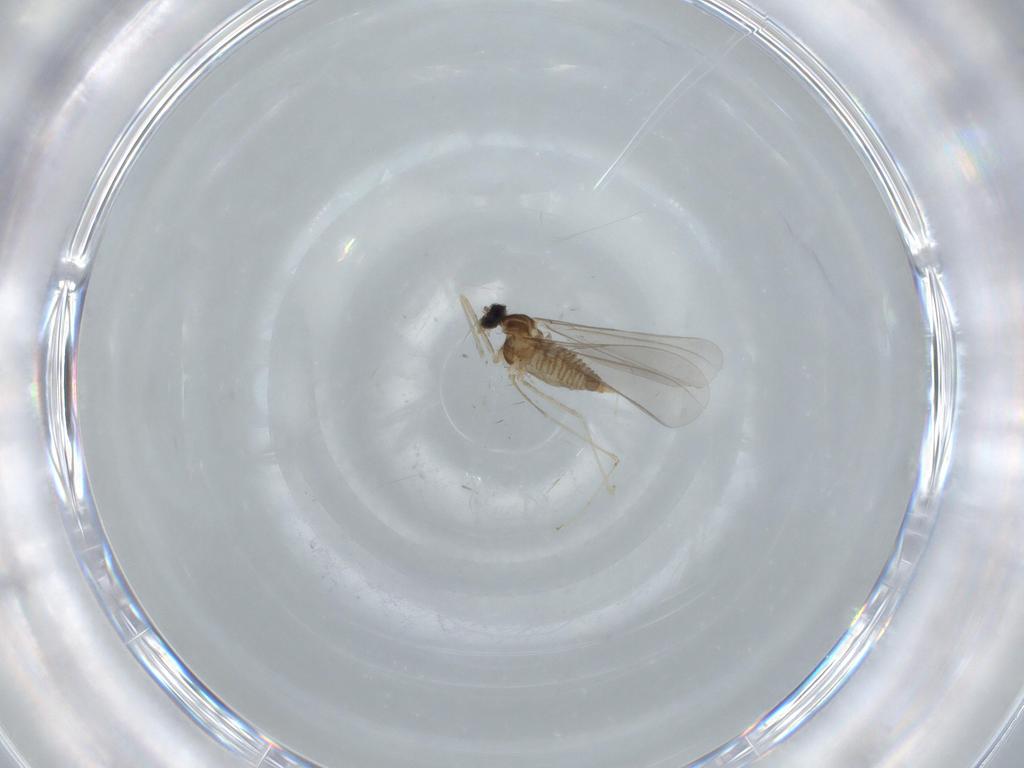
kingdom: Animalia
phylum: Arthropoda
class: Insecta
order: Diptera
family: Cecidomyiidae
